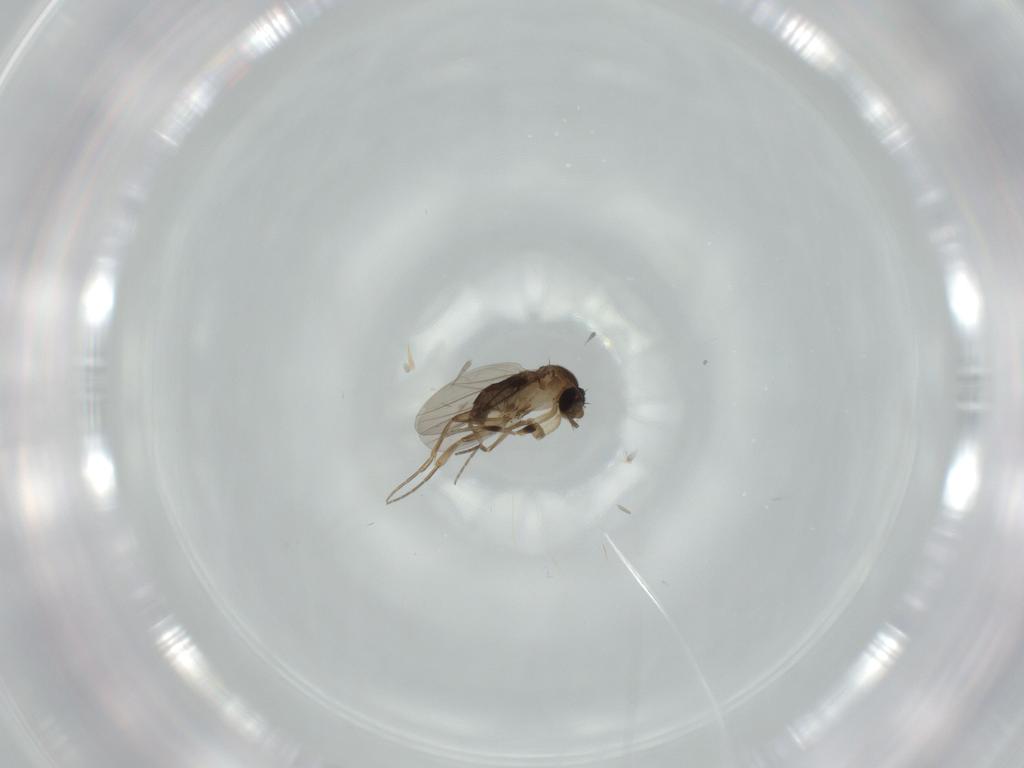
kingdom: Animalia
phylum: Arthropoda
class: Insecta
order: Diptera
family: Phoridae
